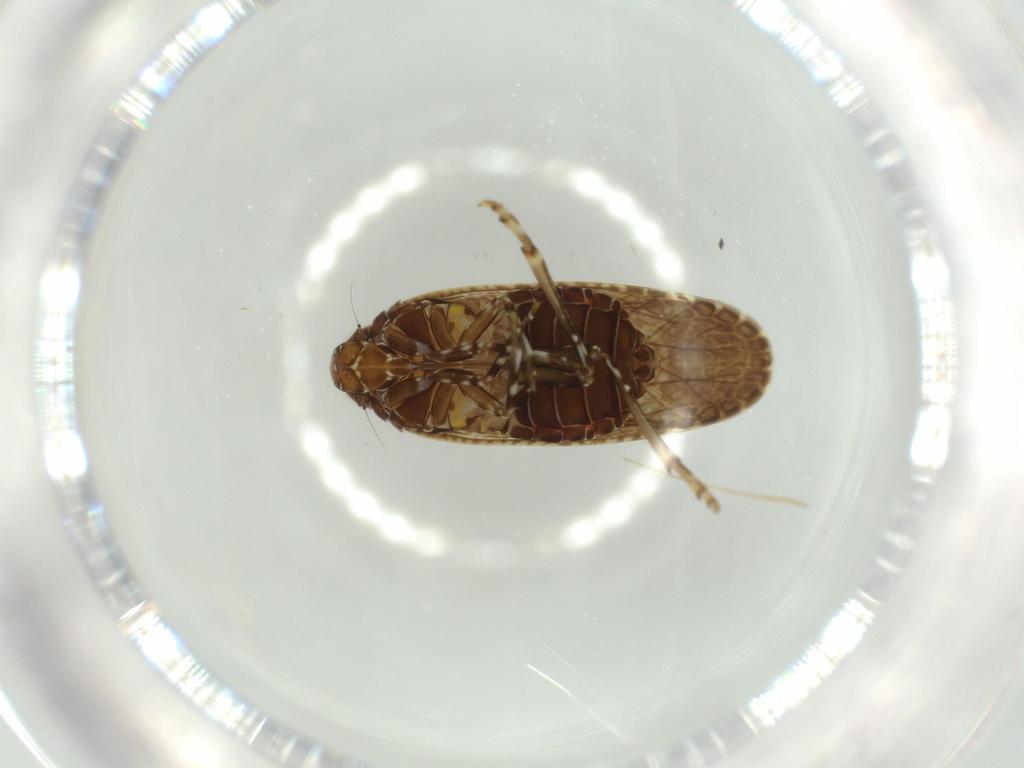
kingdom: Animalia
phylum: Arthropoda
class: Insecta
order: Hemiptera
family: Achilidae
